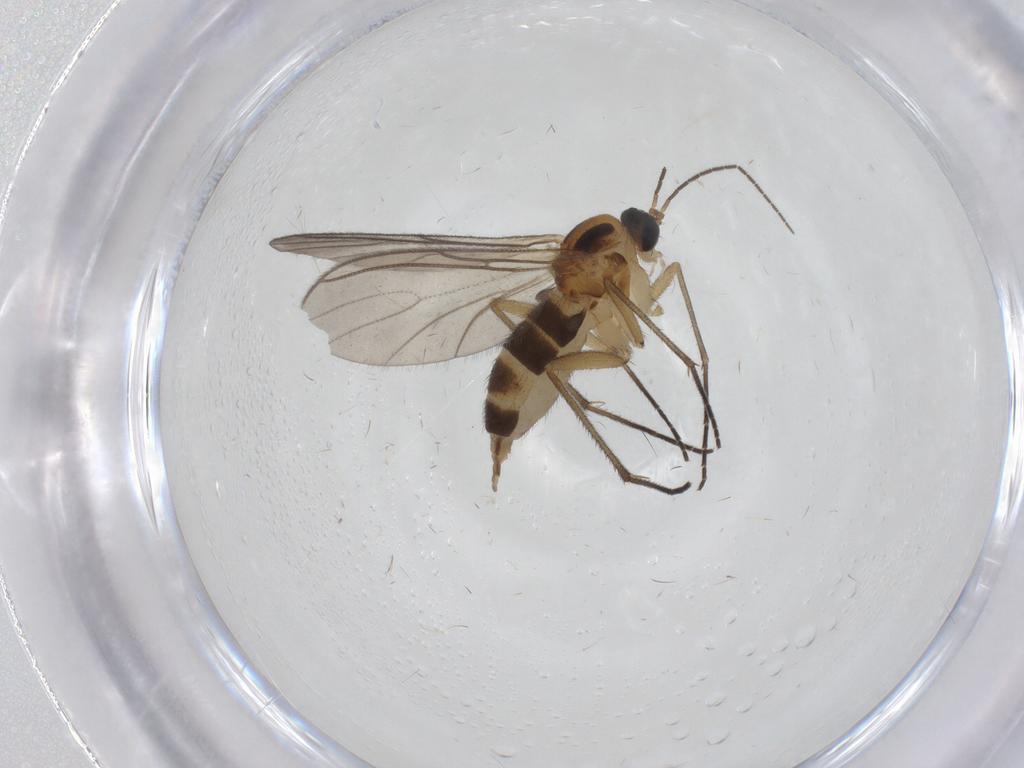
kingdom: Animalia
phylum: Arthropoda
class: Insecta
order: Diptera
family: Sciaridae
